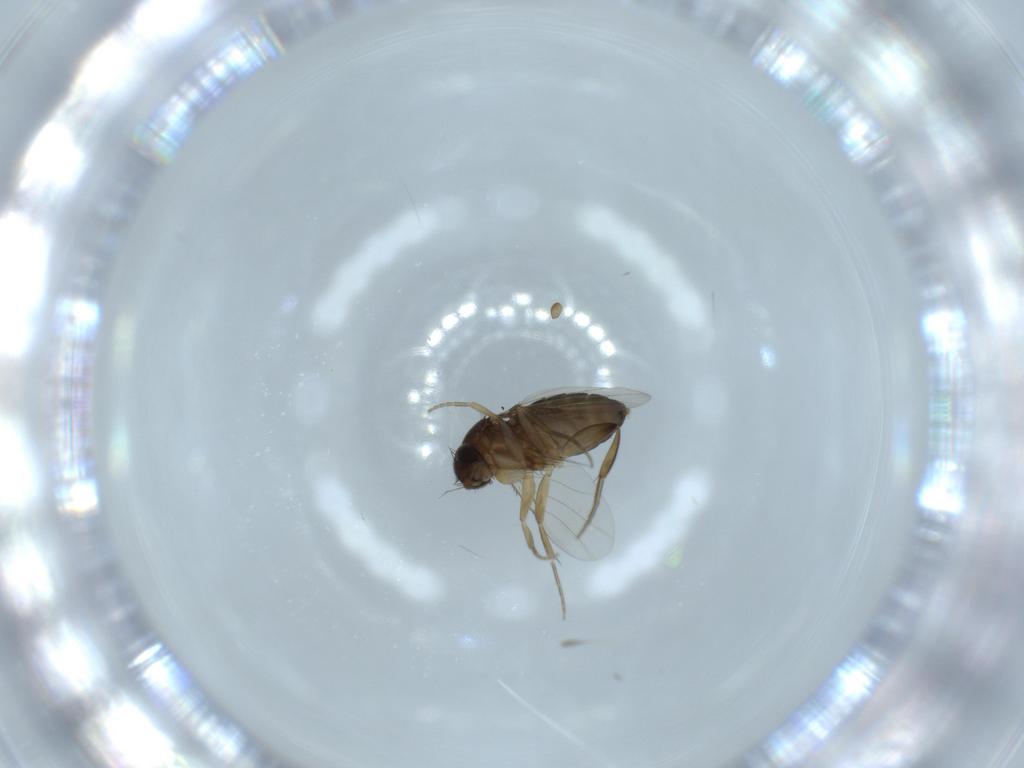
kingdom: Animalia
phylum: Arthropoda
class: Insecta
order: Diptera
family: Phoridae
